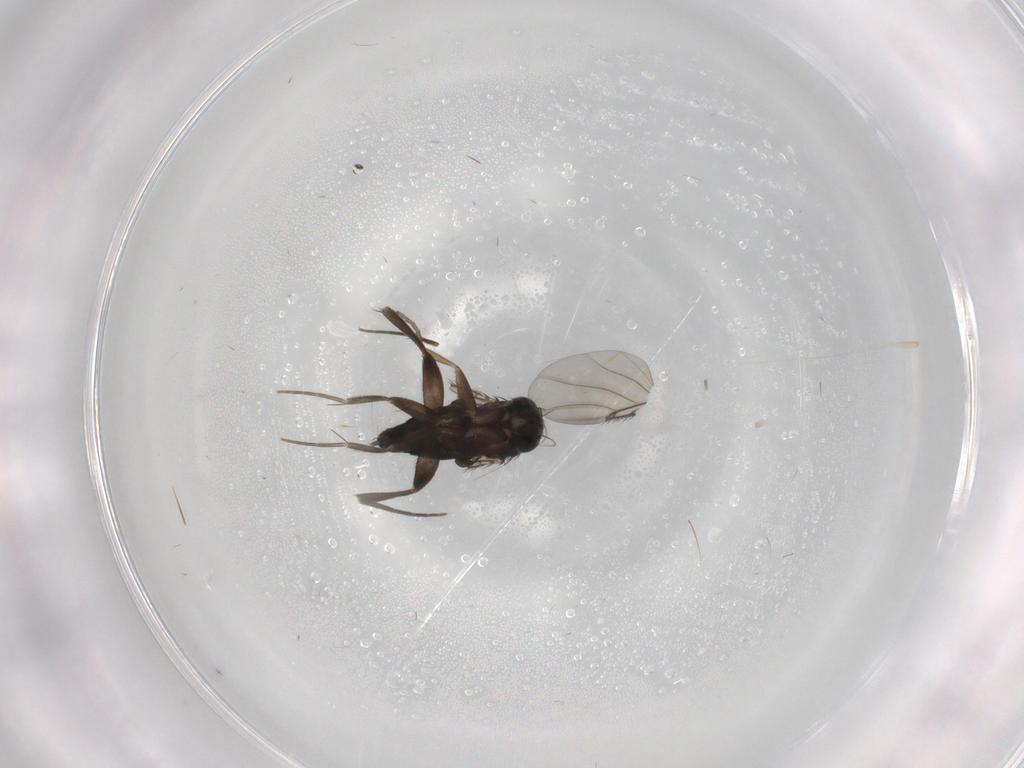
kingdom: Animalia
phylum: Arthropoda
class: Insecta
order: Diptera
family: Phoridae
